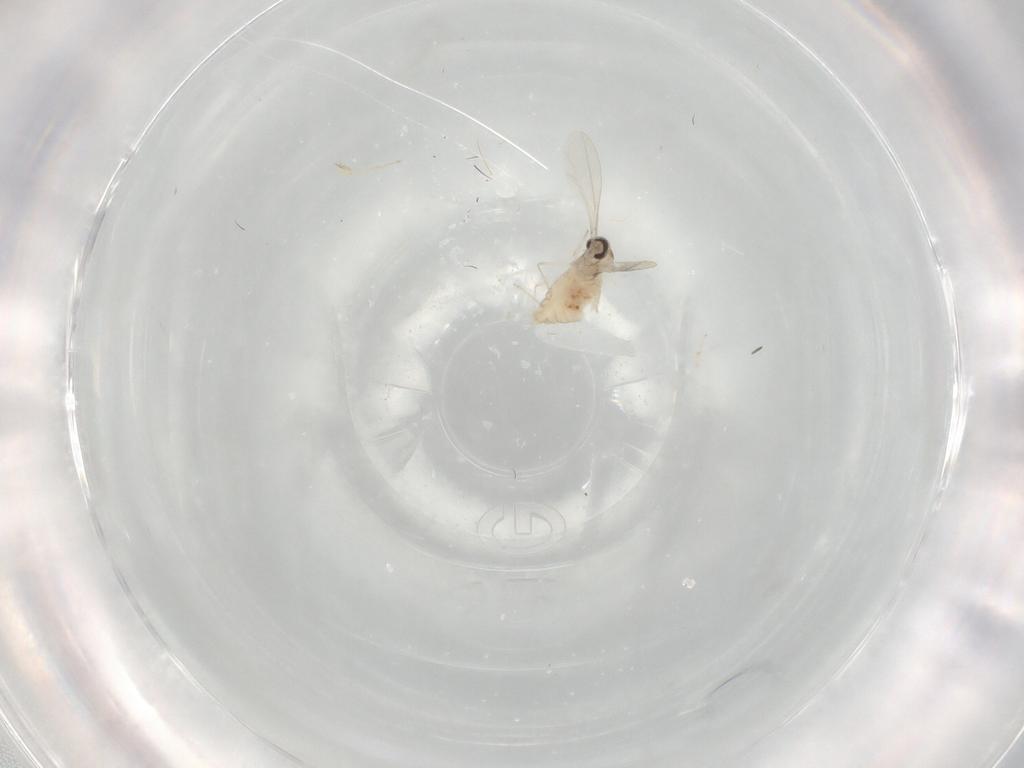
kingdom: Animalia
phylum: Arthropoda
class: Insecta
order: Diptera
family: Cecidomyiidae
